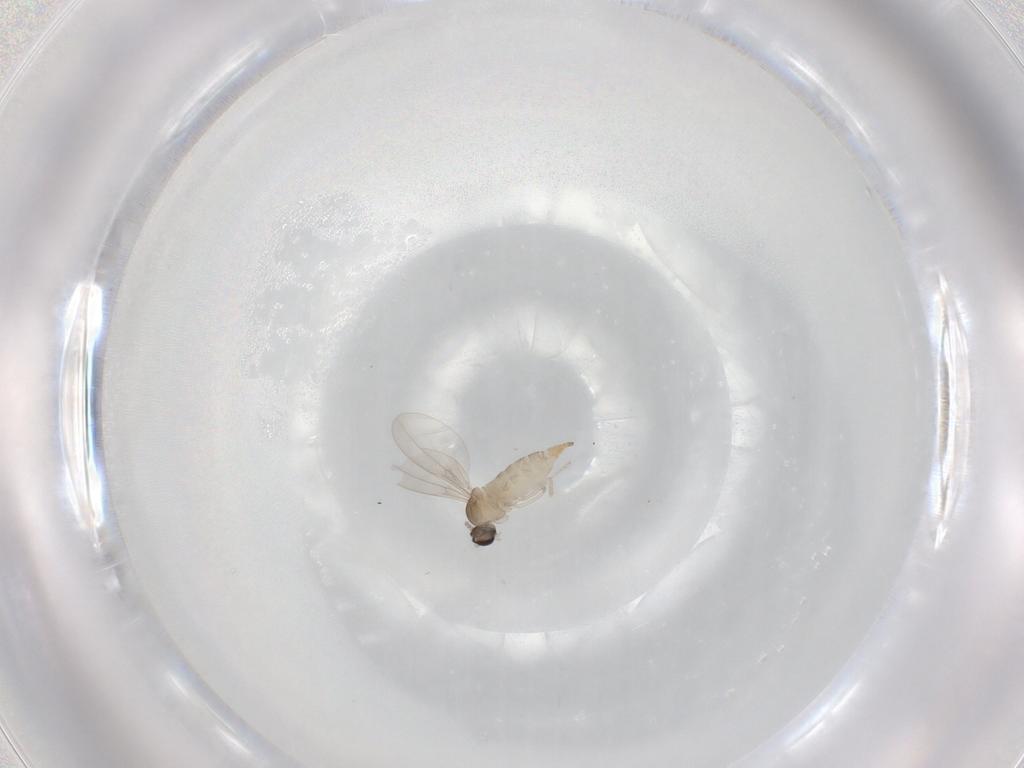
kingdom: Animalia
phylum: Arthropoda
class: Insecta
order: Diptera
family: Cecidomyiidae
